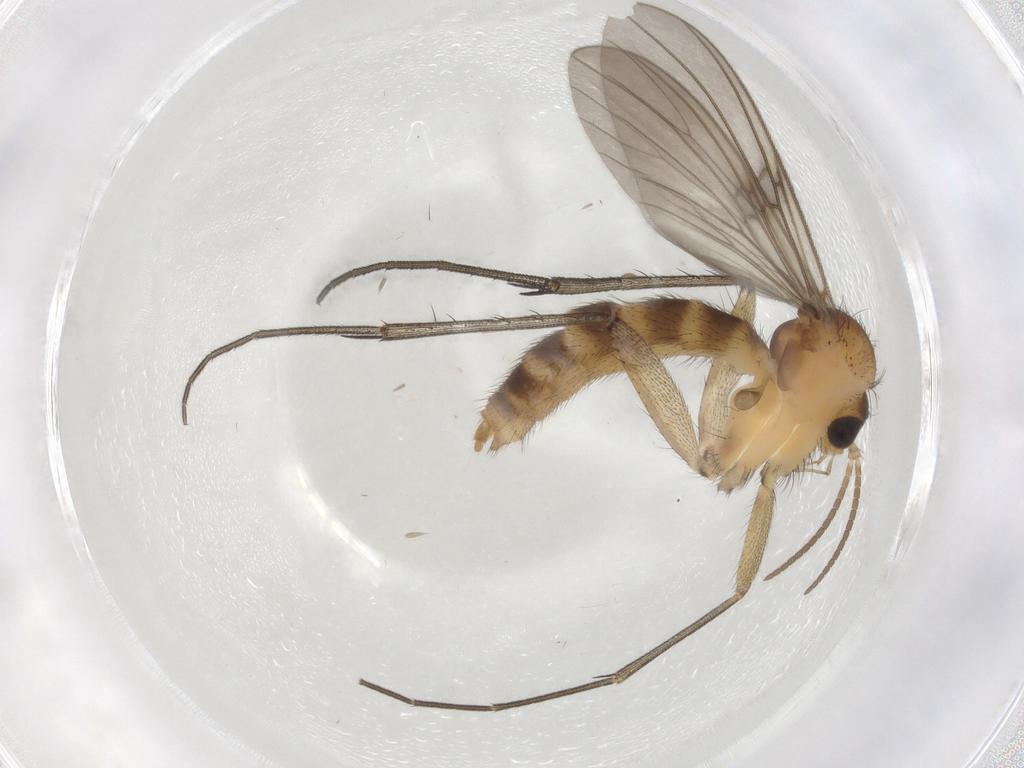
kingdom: Animalia
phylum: Arthropoda
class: Insecta
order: Diptera
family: Mycetophilidae
